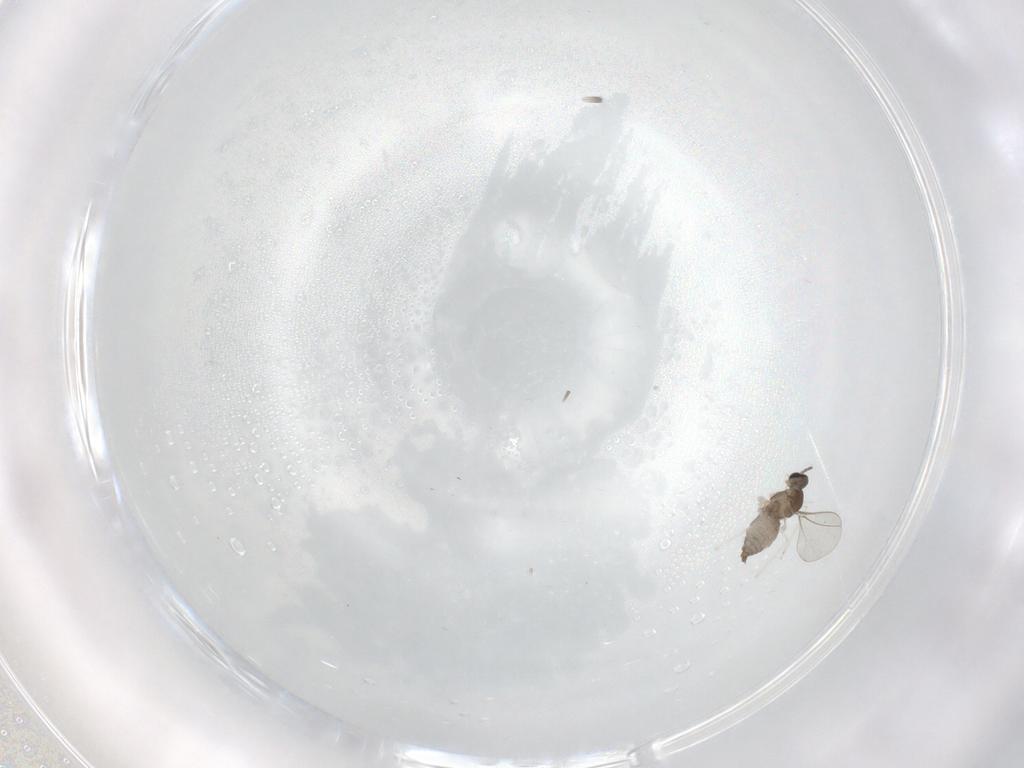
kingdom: Animalia
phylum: Arthropoda
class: Insecta
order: Diptera
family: Cecidomyiidae
